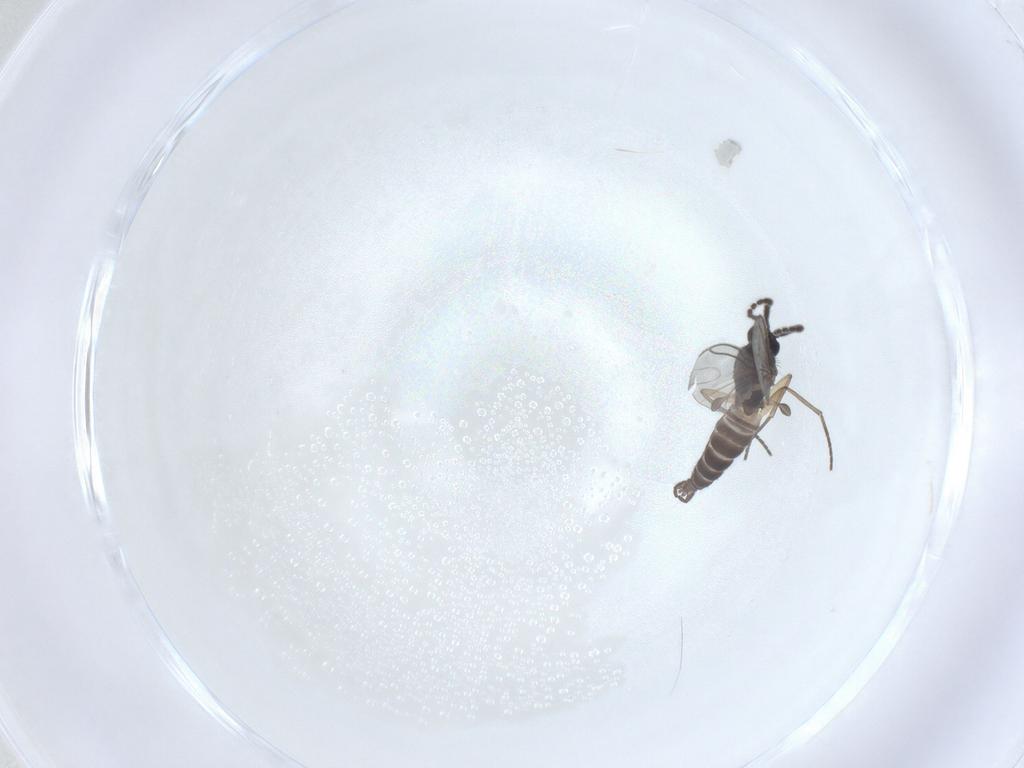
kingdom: Animalia
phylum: Arthropoda
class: Insecta
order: Diptera
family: Sciaridae
